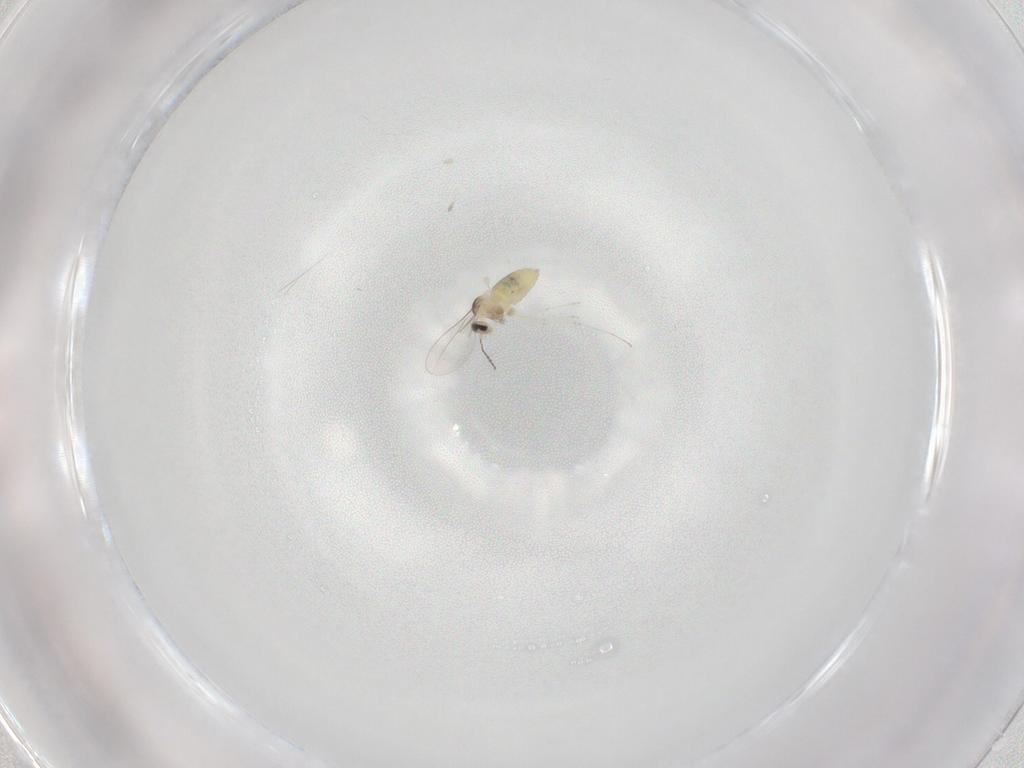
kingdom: Animalia
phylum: Arthropoda
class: Insecta
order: Diptera
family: Cecidomyiidae
